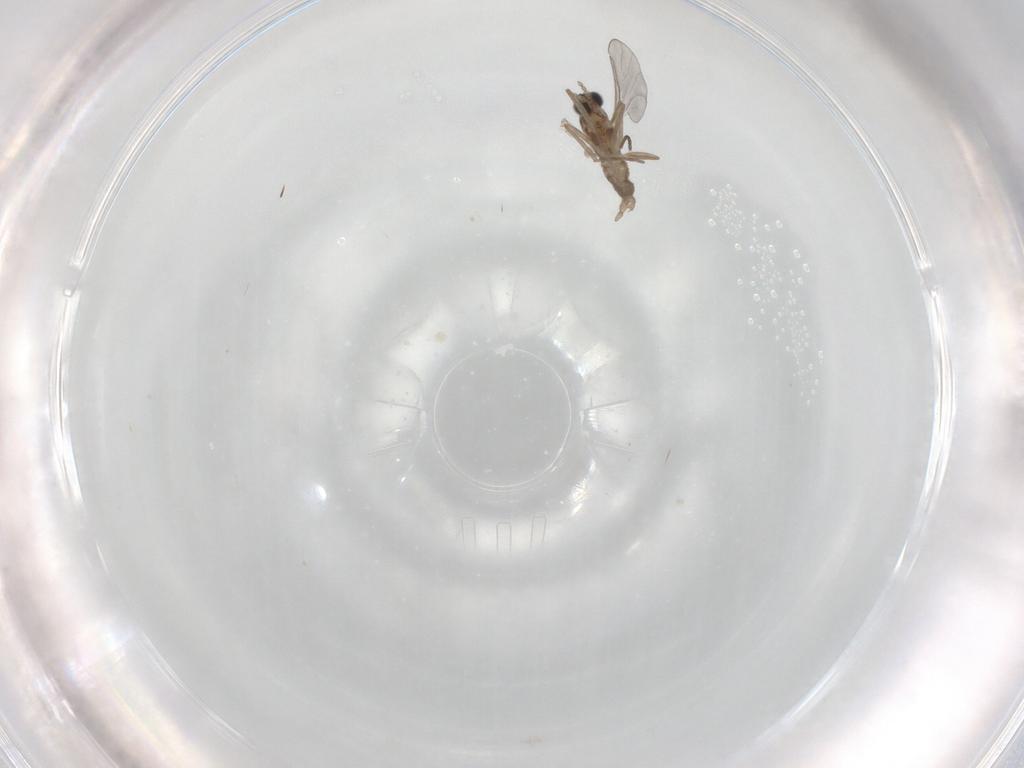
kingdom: Animalia
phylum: Arthropoda
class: Insecta
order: Diptera
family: Cecidomyiidae
